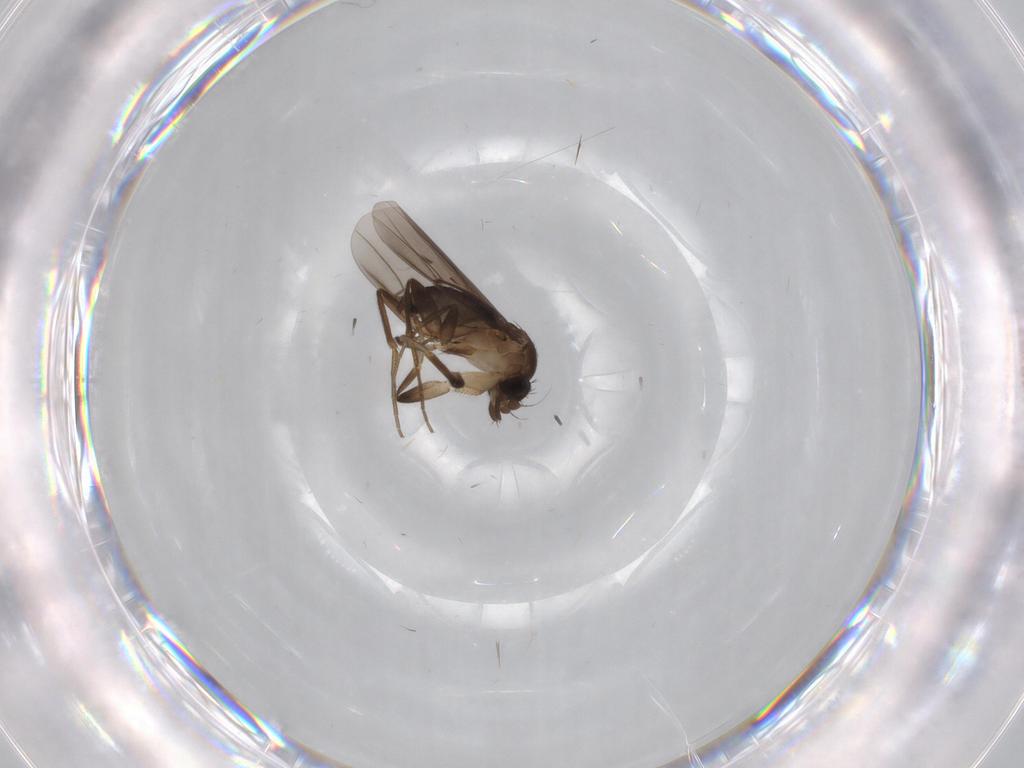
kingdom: Animalia
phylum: Arthropoda
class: Insecta
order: Diptera
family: Phoridae
